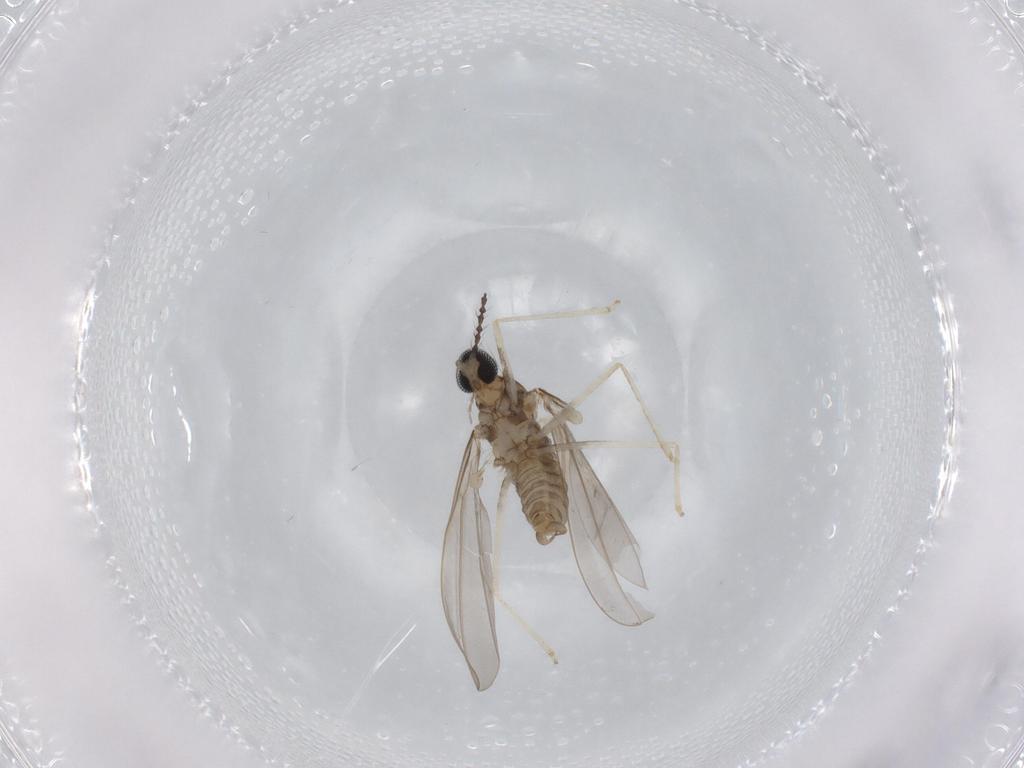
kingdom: Animalia
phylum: Arthropoda
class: Insecta
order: Diptera
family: Cecidomyiidae
